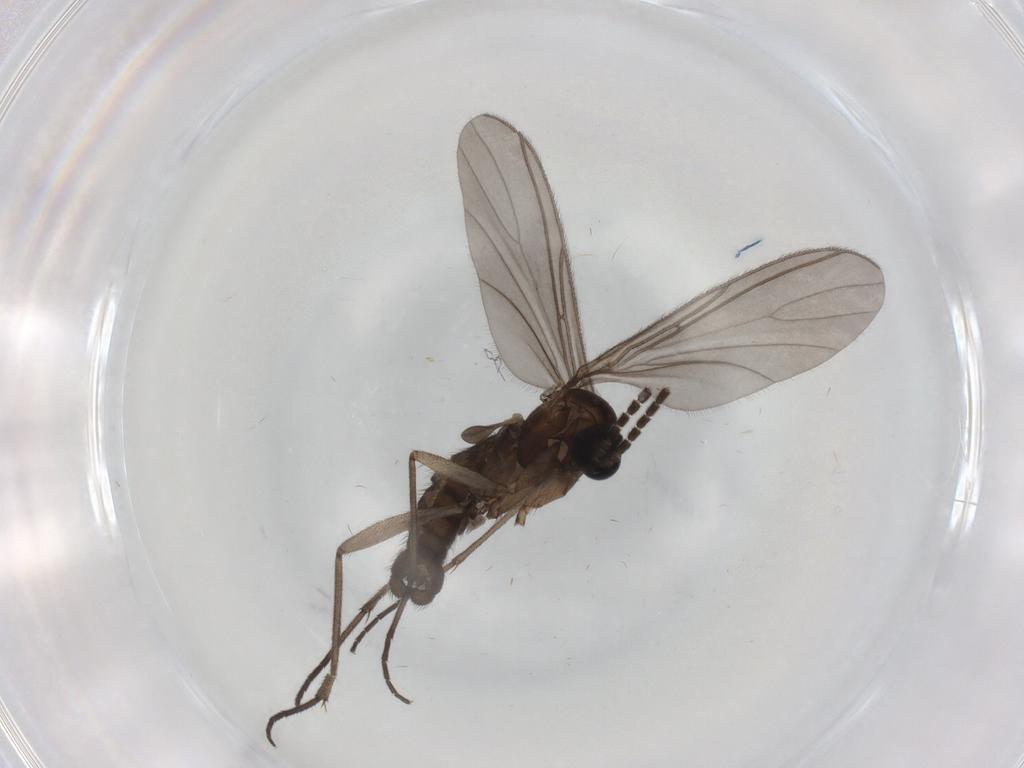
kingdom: Animalia
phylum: Arthropoda
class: Insecta
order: Diptera
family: Sciaridae
